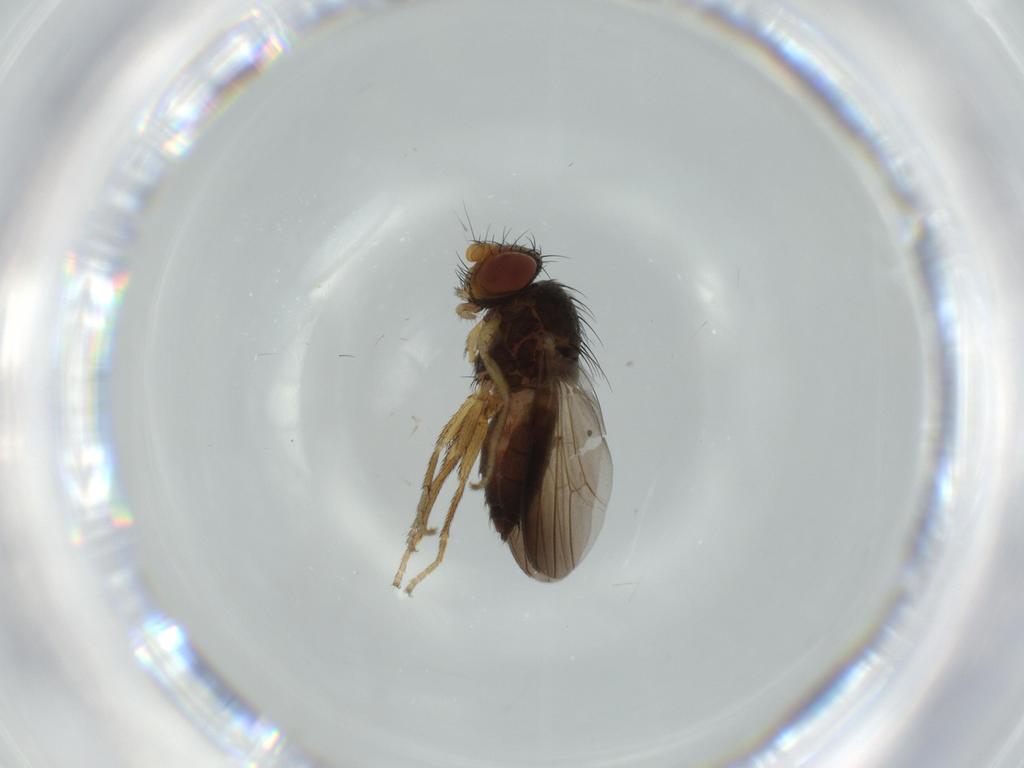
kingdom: Animalia
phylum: Arthropoda
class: Insecta
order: Diptera
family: Milichiidae
